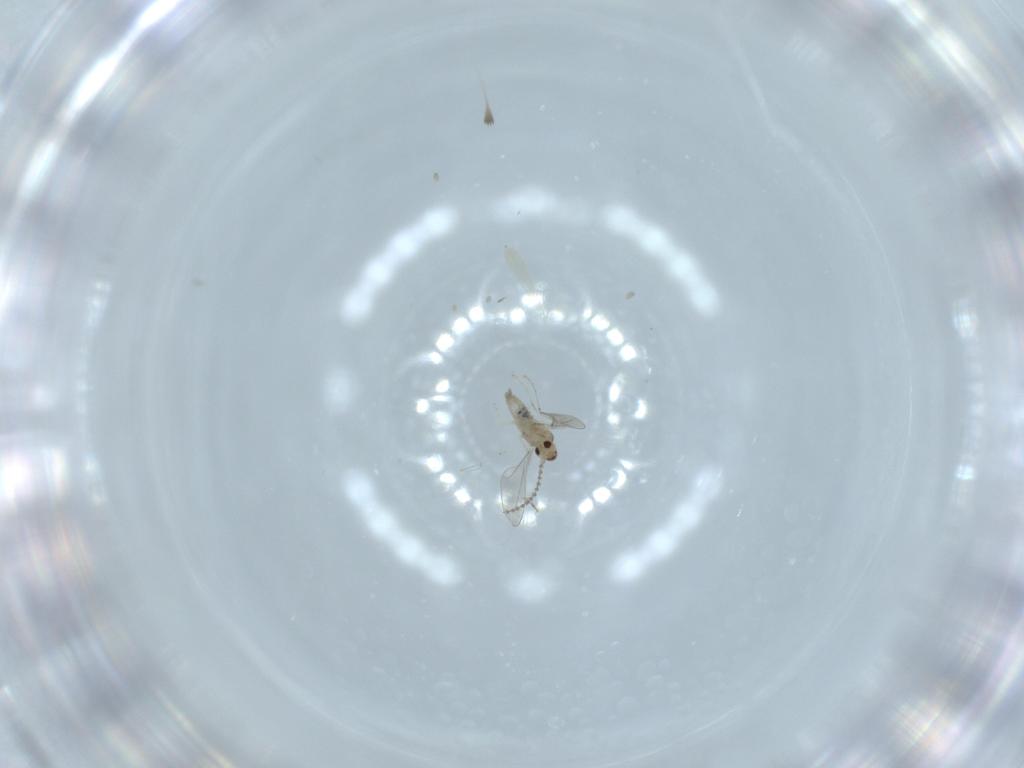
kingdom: Animalia
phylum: Arthropoda
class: Insecta
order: Diptera
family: Cecidomyiidae
